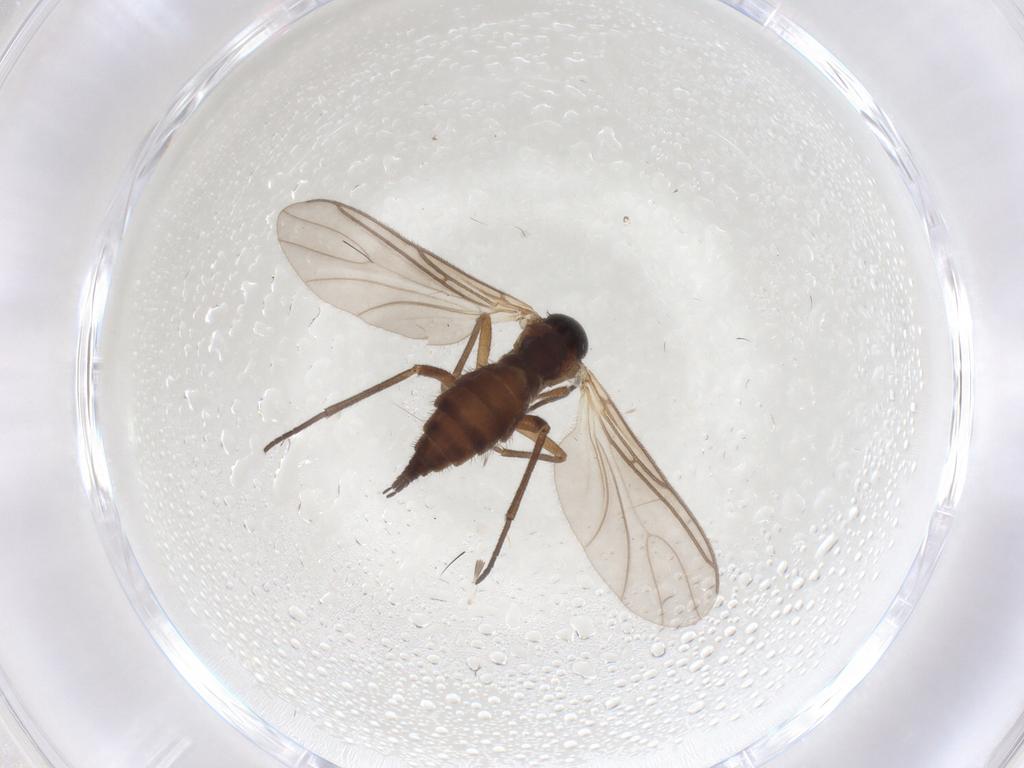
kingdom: Animalia
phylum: Arthropoda
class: Insecta
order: Diptera
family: Sciaridae
